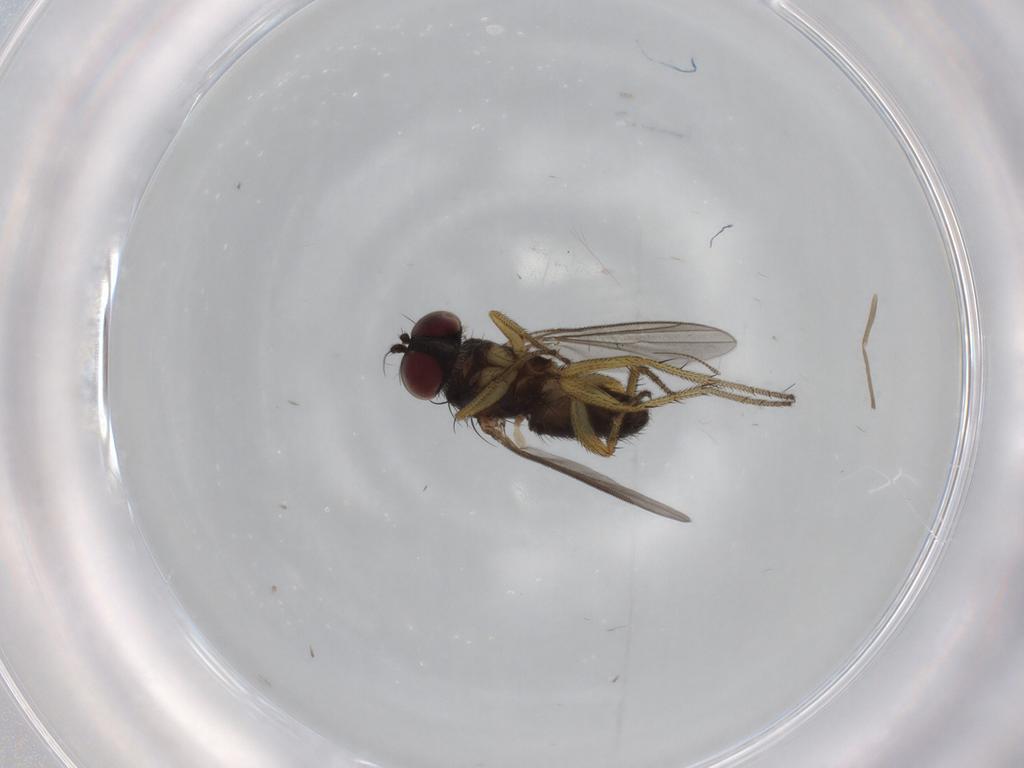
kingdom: Animalia
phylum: Arthropoda
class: Insecta
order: Diptera
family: Chironomidae
